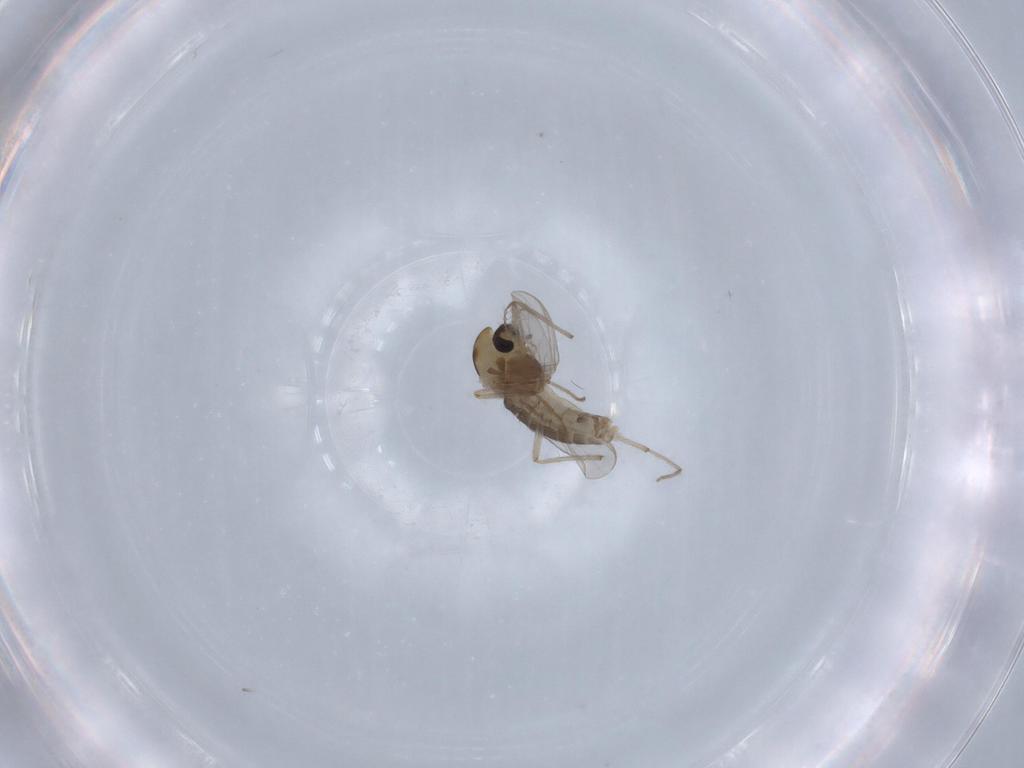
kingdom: Animalia
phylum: Arthropoda
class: Insecta
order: Diptera
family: Chironomidae
